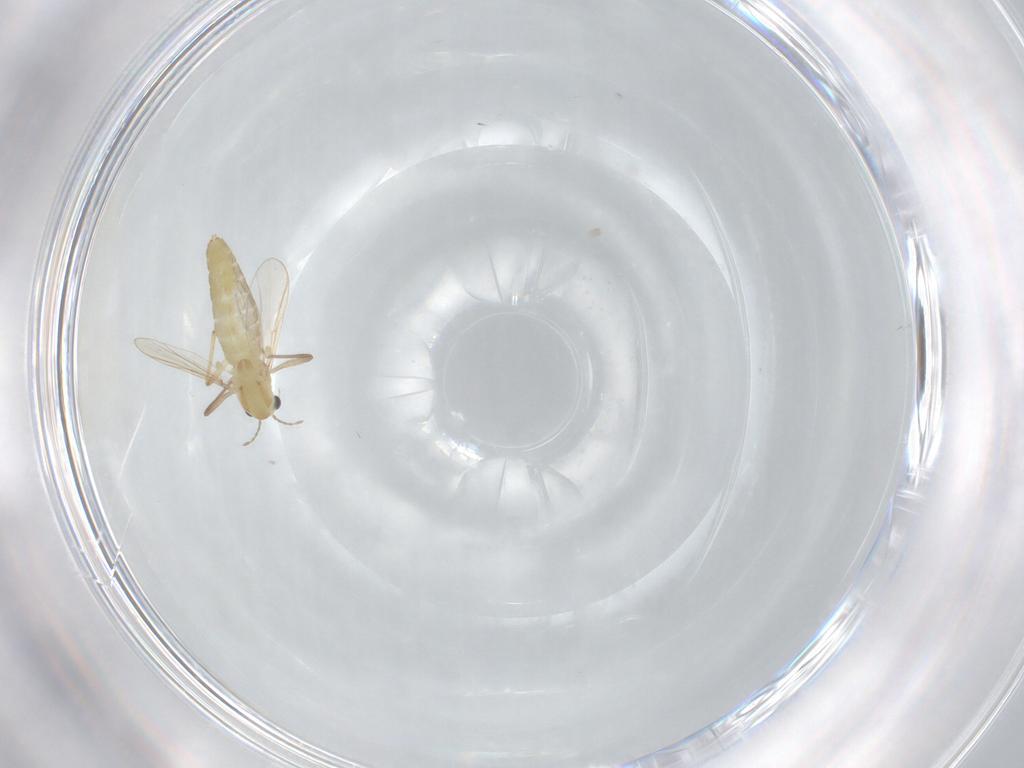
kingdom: Animalia
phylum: Arthropoda
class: Insecta
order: Diptera
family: Chironomidae
